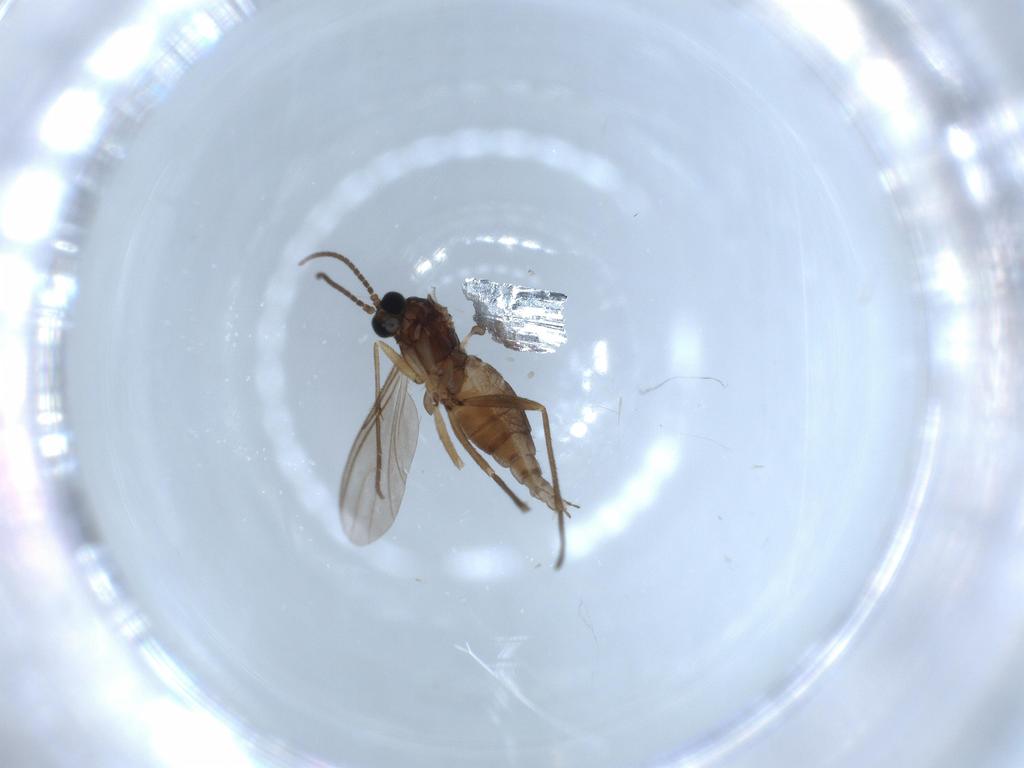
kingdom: Animalia
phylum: Arthropoda
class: Insecta
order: Diptera
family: Sciaridae
